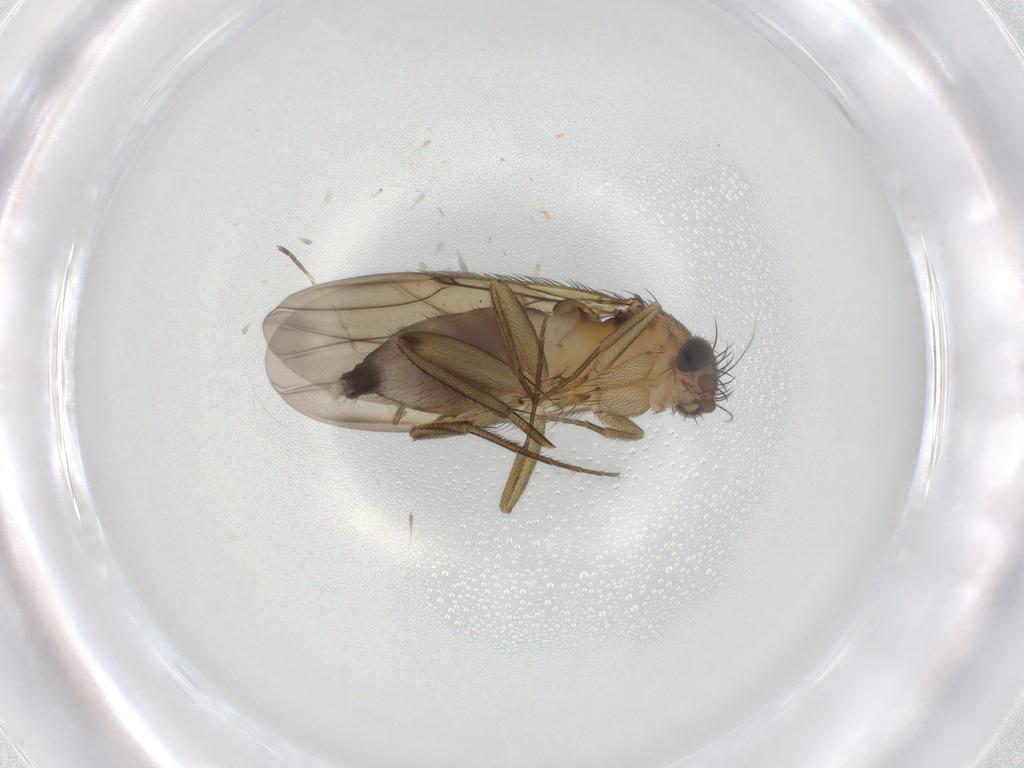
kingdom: Animalia
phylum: Arthropoda
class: Insecta
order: Diptera
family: Phoridae
